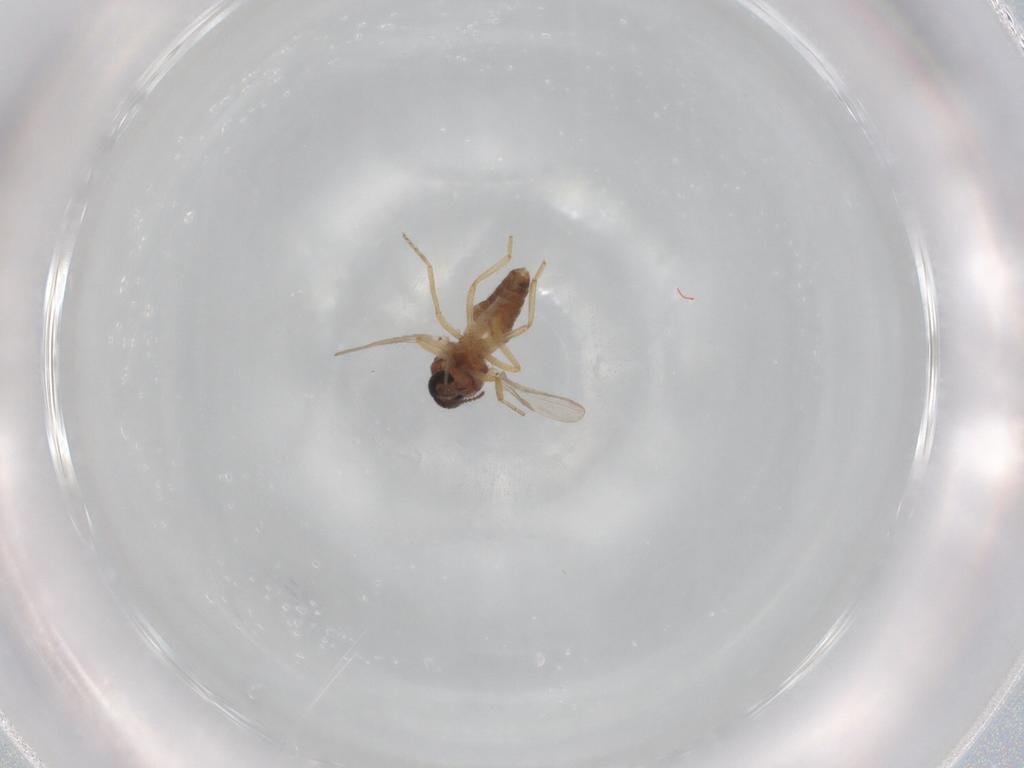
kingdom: Animalia
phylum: Arthropoda
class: Insecta
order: Diptera
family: Ceratopogonidae
